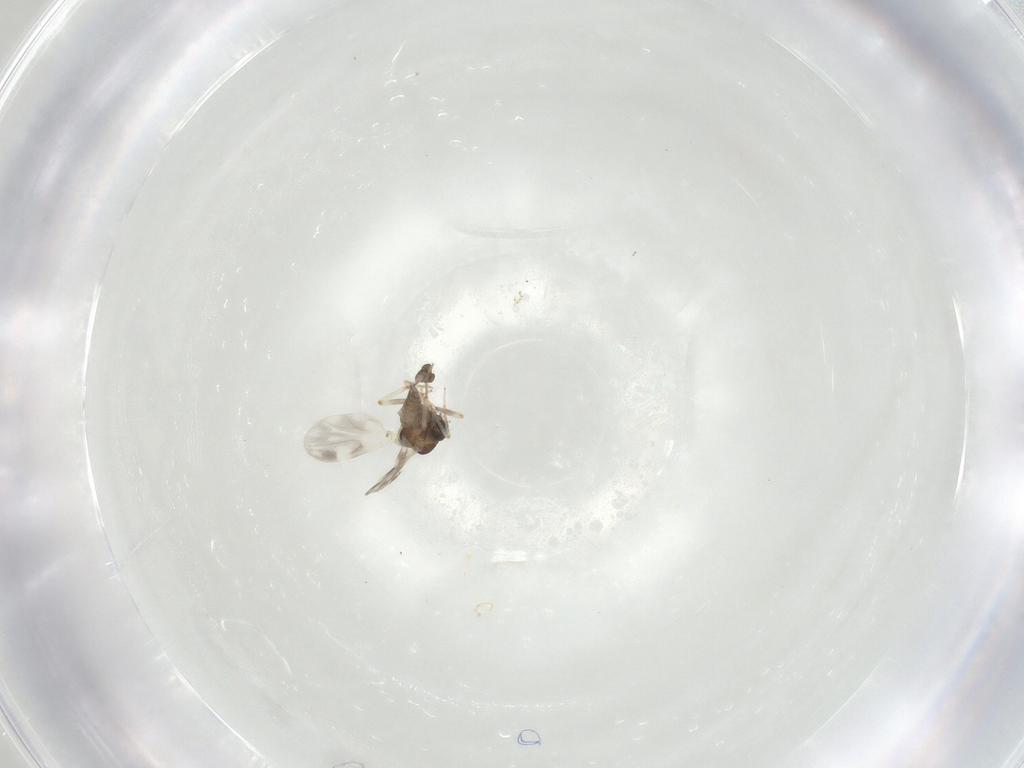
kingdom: Animalia
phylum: Arthropoda
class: Insecta
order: Diptera
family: Ceratopogonidae
